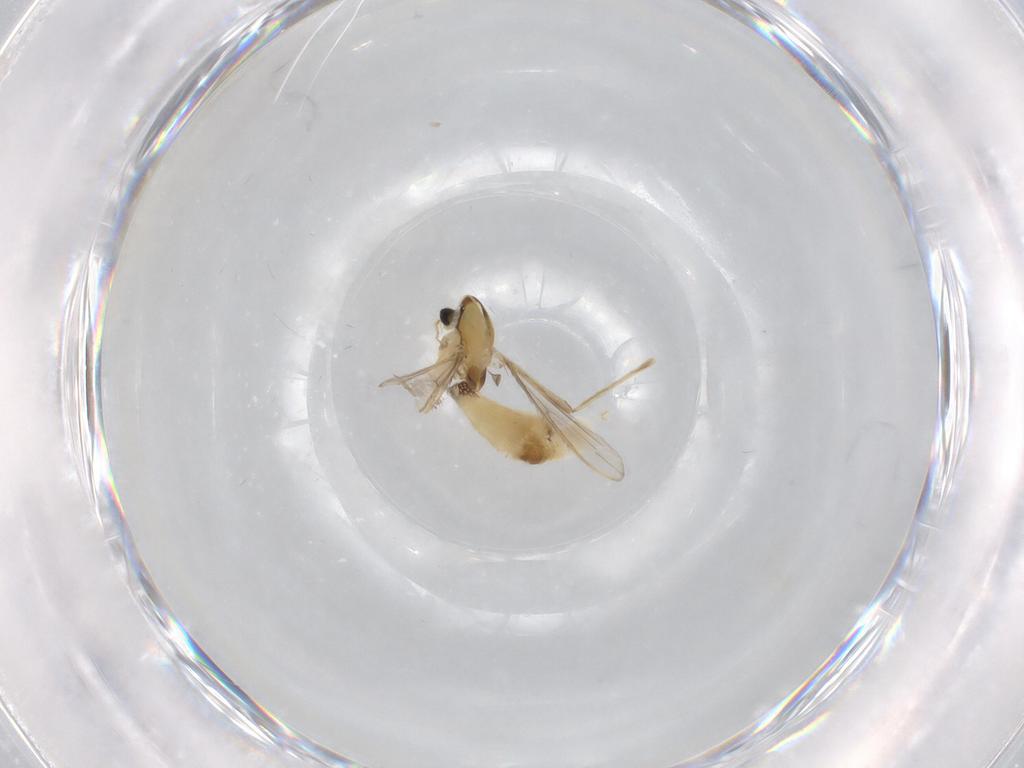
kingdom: Animalia
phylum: Arthropoda
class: Insecta
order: Diptera
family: Chironomidae
